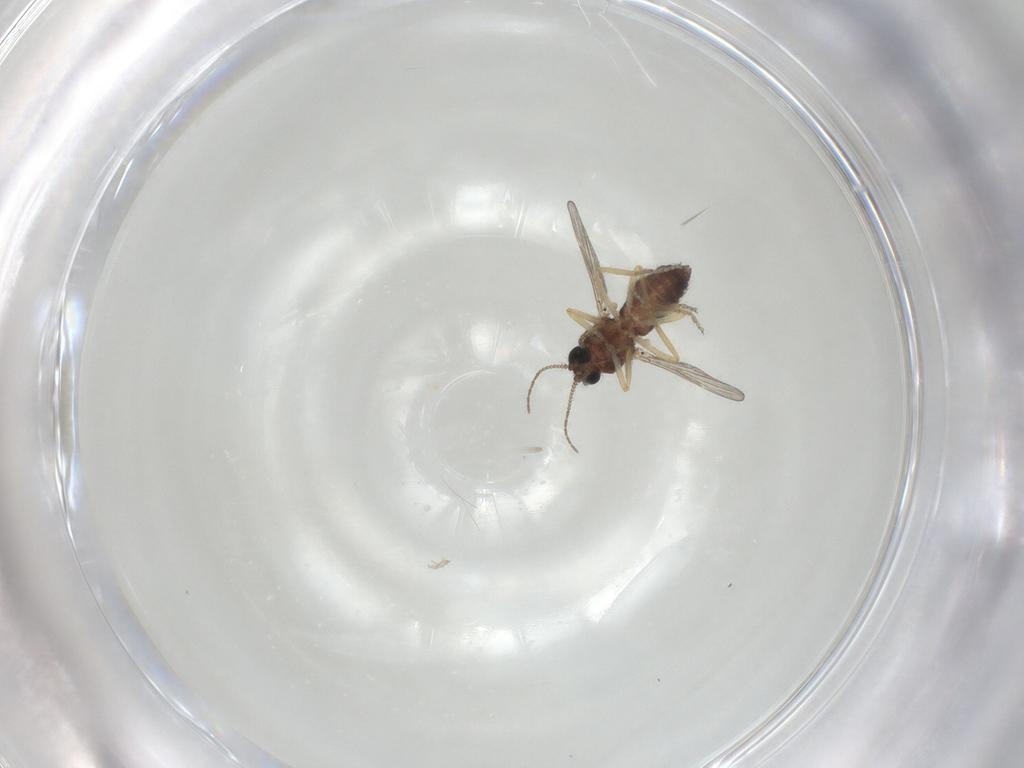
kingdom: Animalia
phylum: Arthropoda
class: Insecta
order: Diptera
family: Ceratopogonidae
